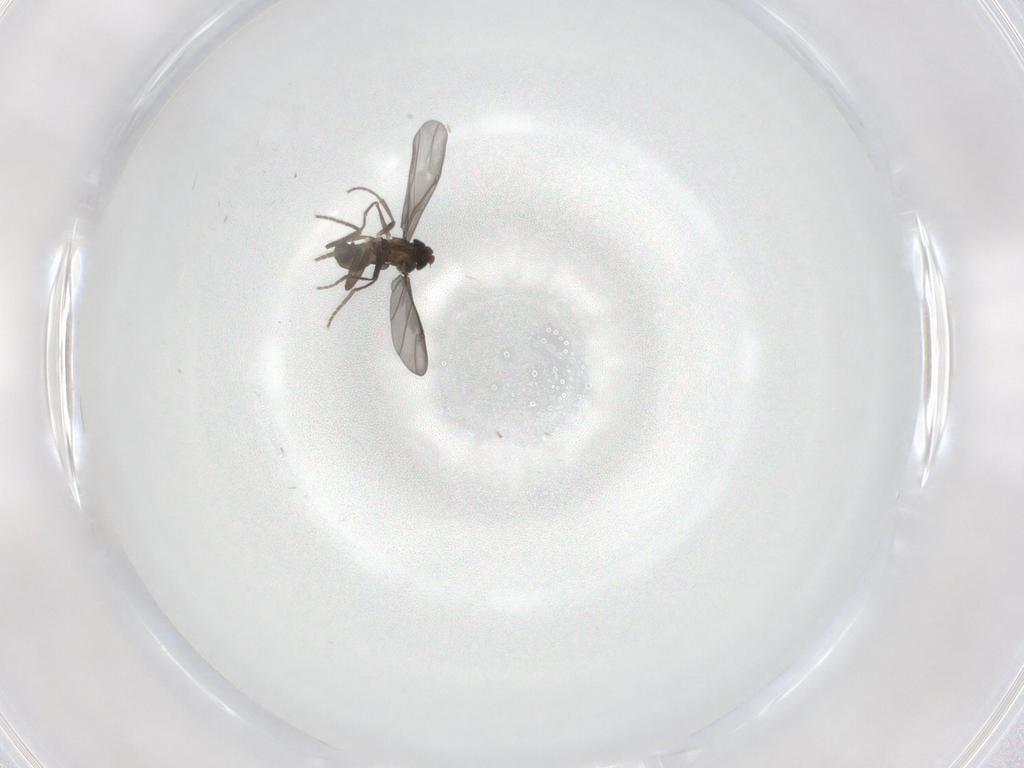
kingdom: Animalia
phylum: Arthropoda
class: Insecta
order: Diptera
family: Phoridae
